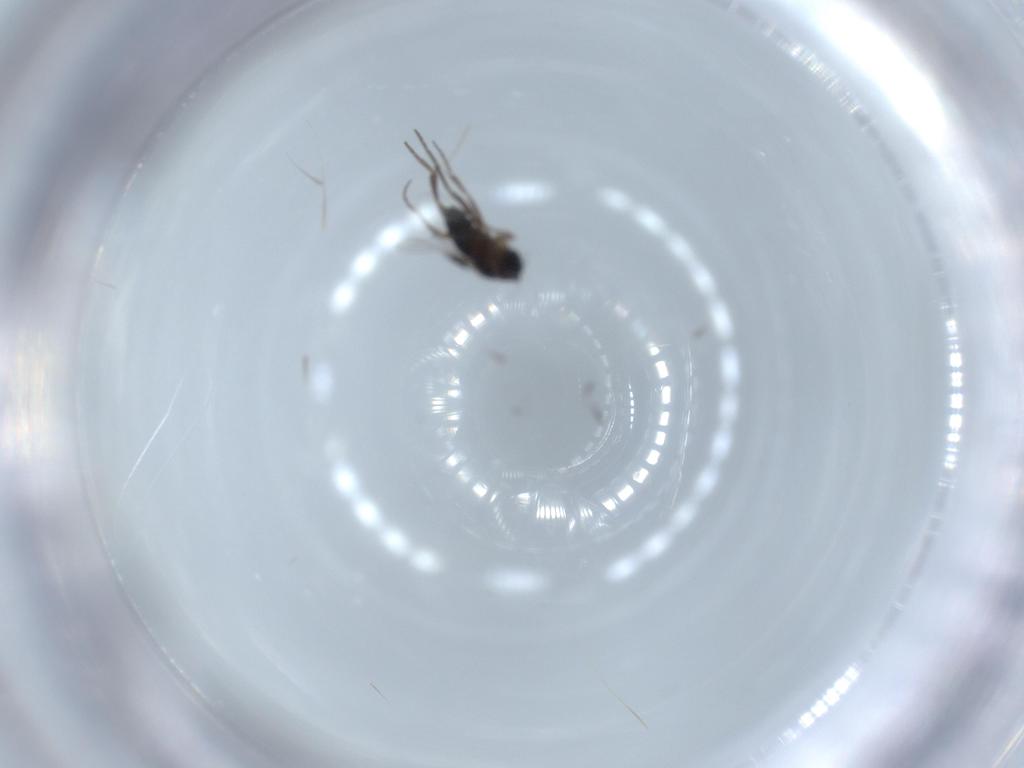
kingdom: Animalia
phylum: Arthropoda
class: Insecta
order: Diptera
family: Phoridae
